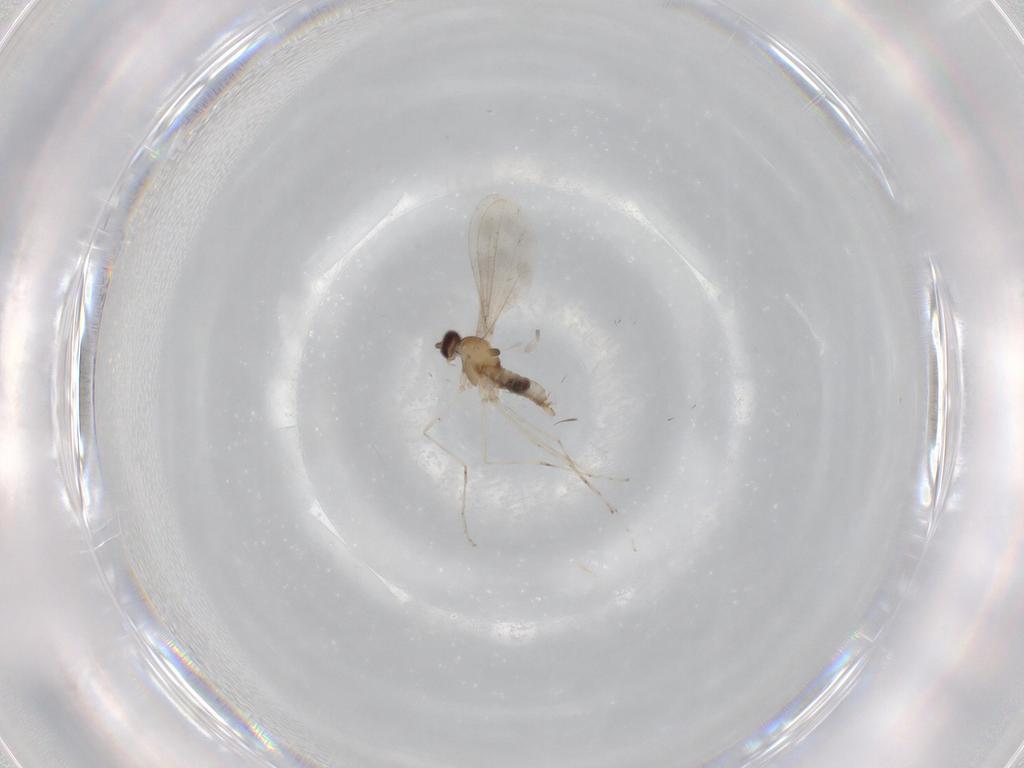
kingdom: Animalia
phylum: Arthropoda
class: Insecta
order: Diptera
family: Cecidomyiidae
